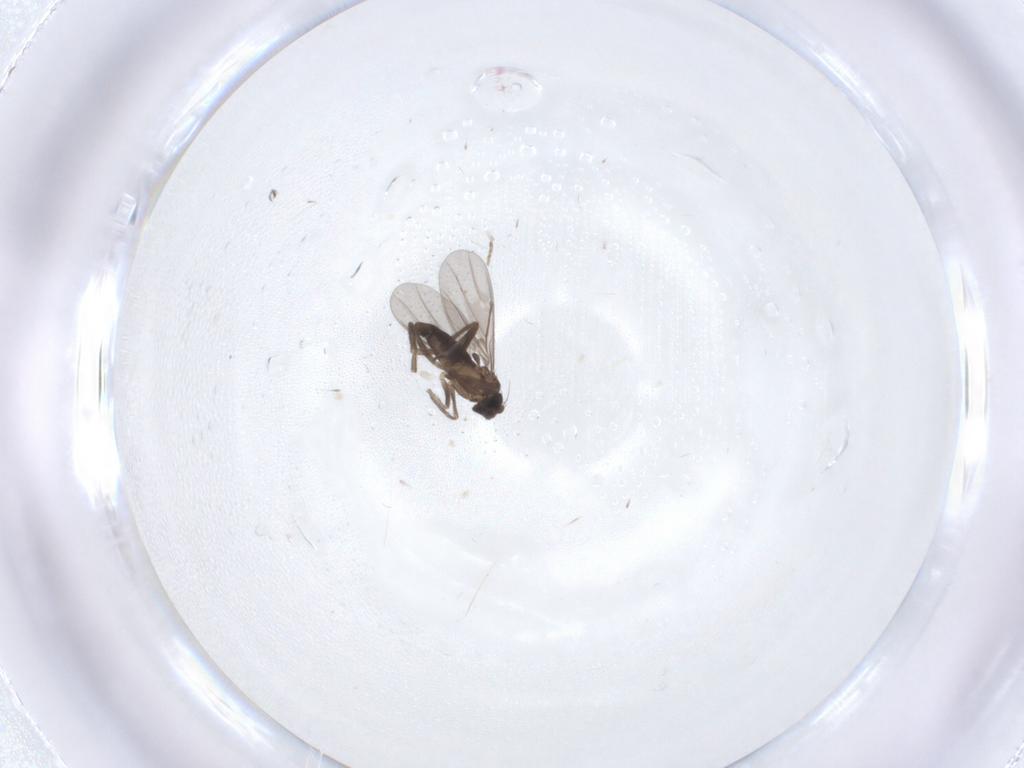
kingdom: Animalia
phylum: Arthropoda
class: Insecta
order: Diptera
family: Phoridae
